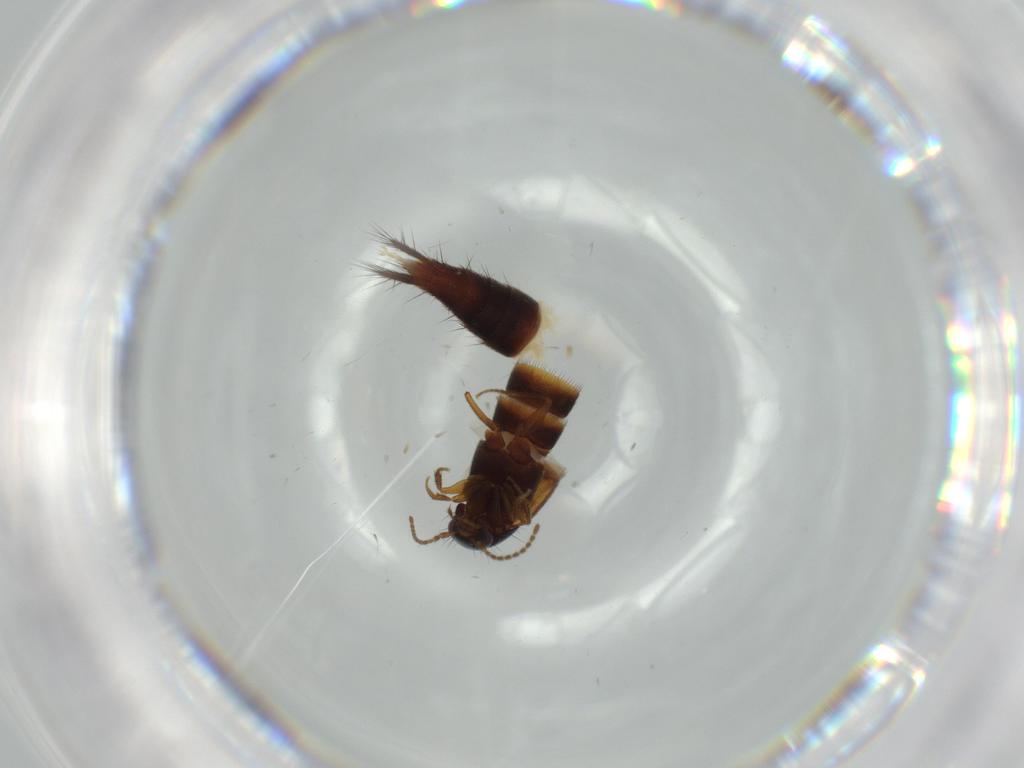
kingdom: Animalia
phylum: Arthropoda
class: Insecta
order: Coleoptera
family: Staphylinidae
